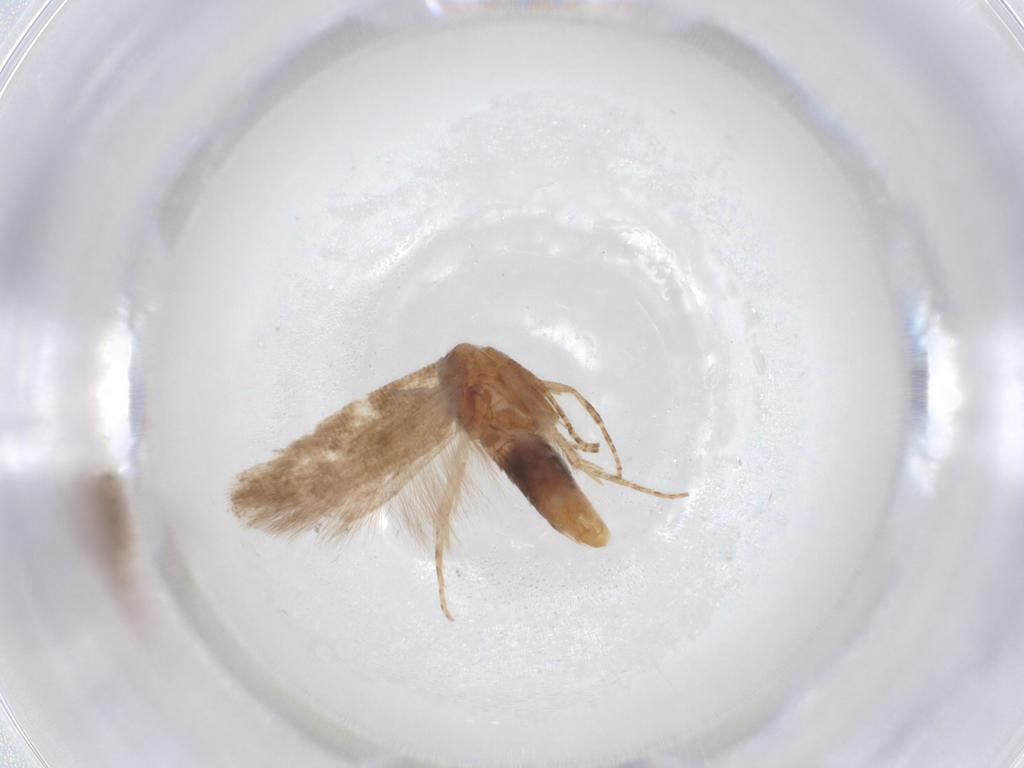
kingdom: Animalia
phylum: Arthropoda
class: Insecta
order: Lepidoptera
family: Gelechiidae
